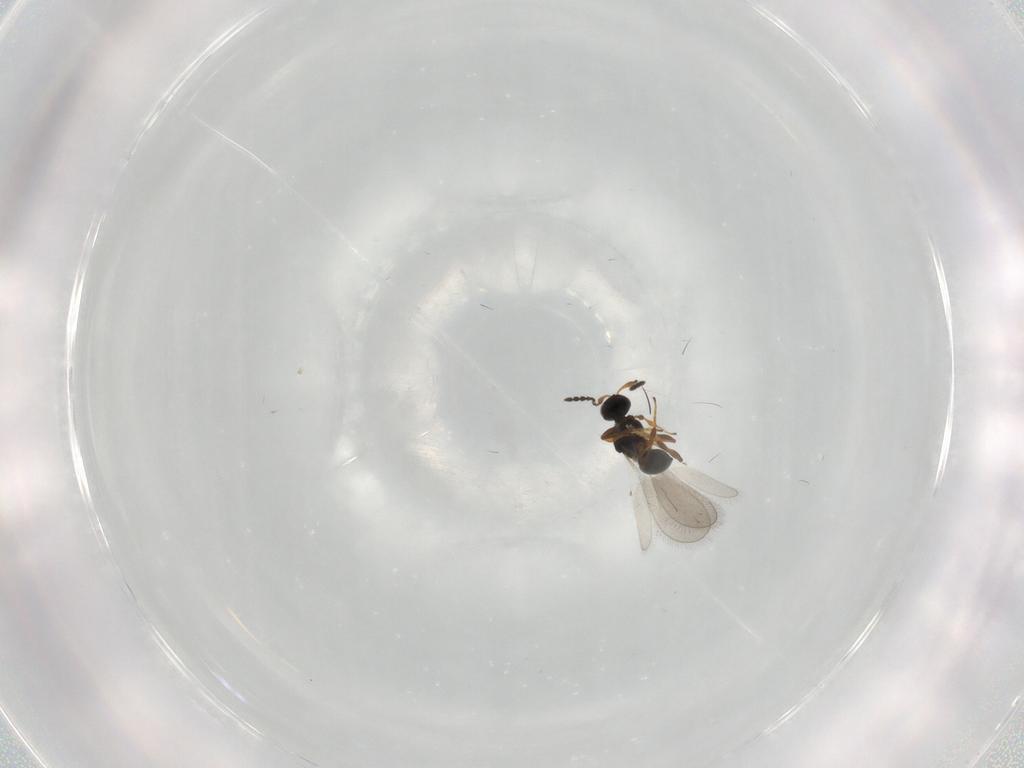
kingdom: Animalia
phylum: Arthropoda
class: Insecta
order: Hymenoptera
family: Platygastridae
